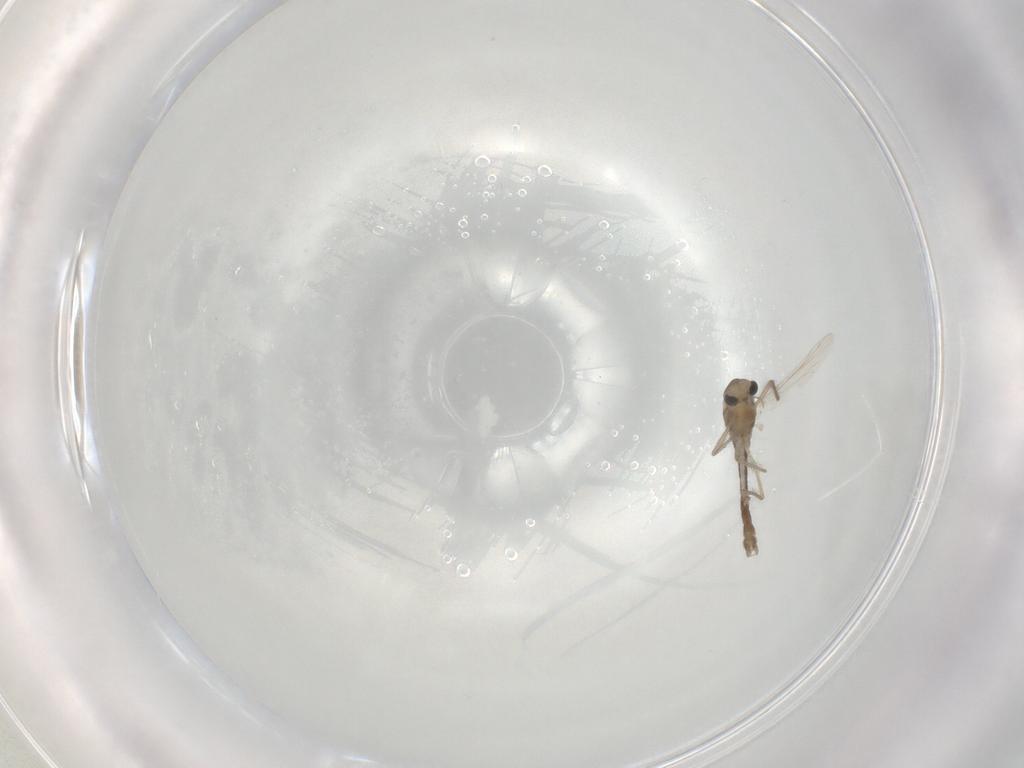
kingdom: Animalia
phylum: Arthropoda
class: Insecta
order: Diptera
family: Chironomidae
